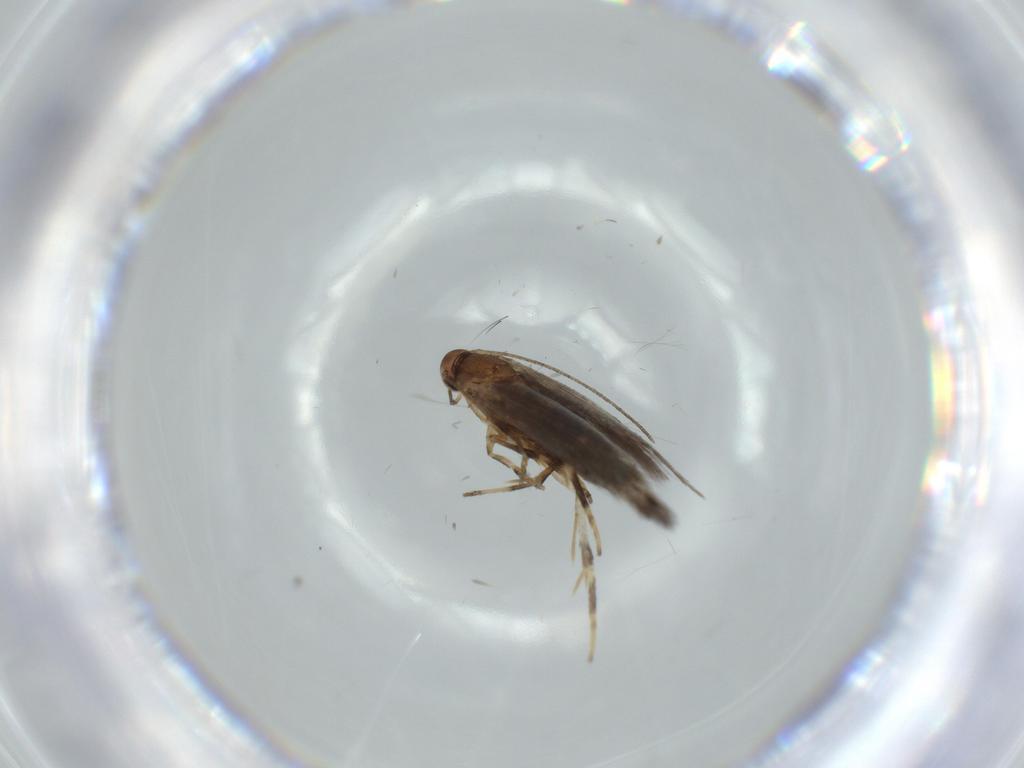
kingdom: Animalia
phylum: Arthropoda
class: Insecta
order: Lepidoptera
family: Cosmopterigidae
